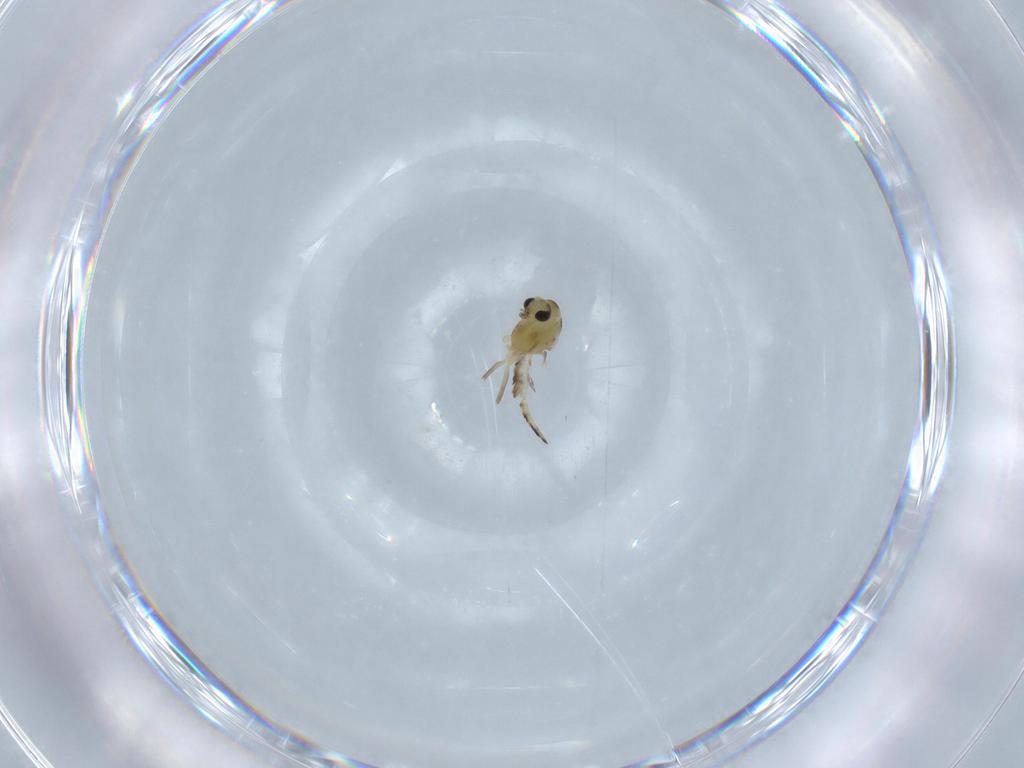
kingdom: Animalia
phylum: Arthropoda
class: Insecta
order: Diptera
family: Chironomidae
